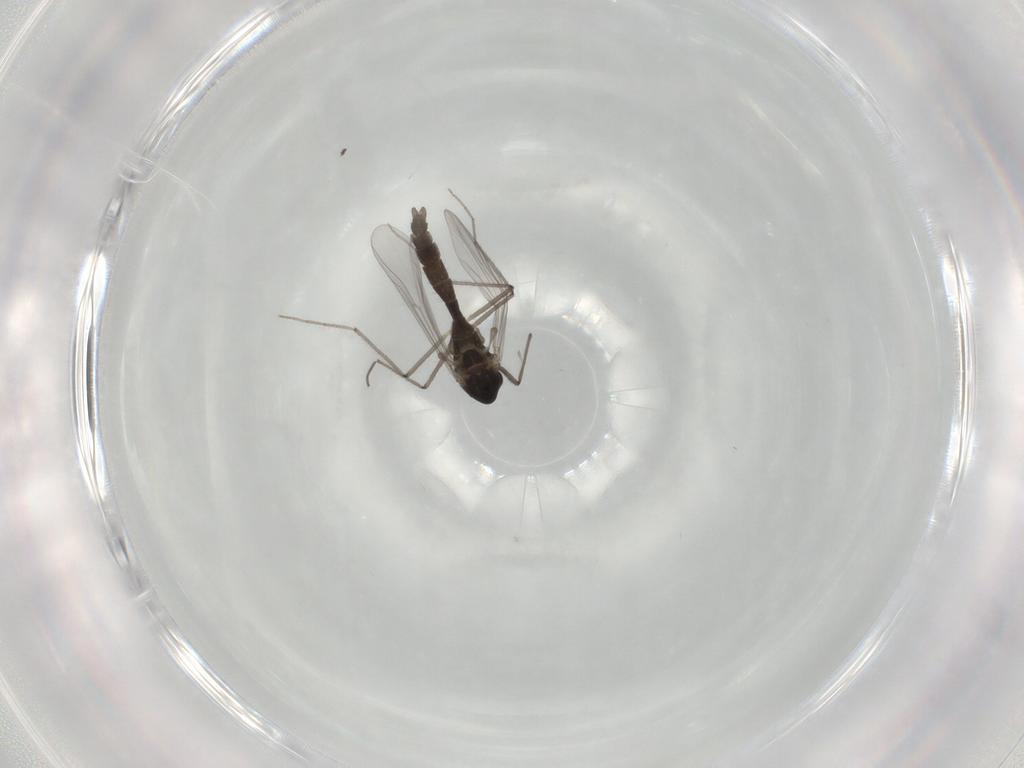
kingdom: Animalia
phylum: Arthropoda
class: Insecta
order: Diptera
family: Chironomidae
